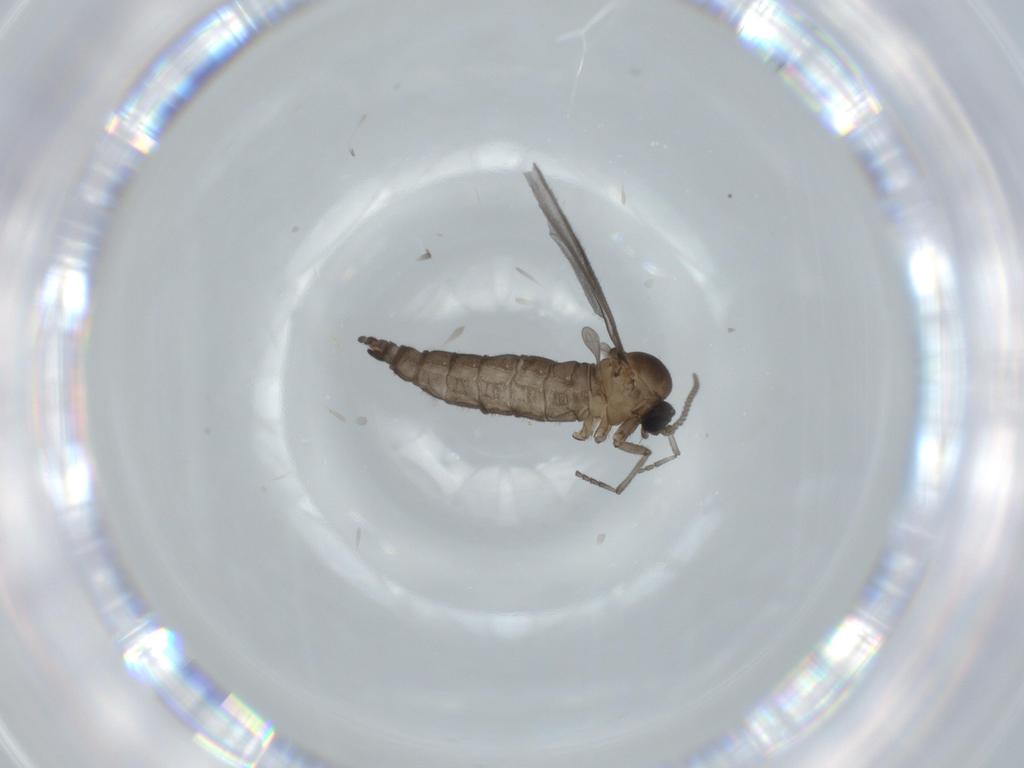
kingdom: Animalia
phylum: Arthropoda
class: Insecta
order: Diptera
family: Sciaridae
